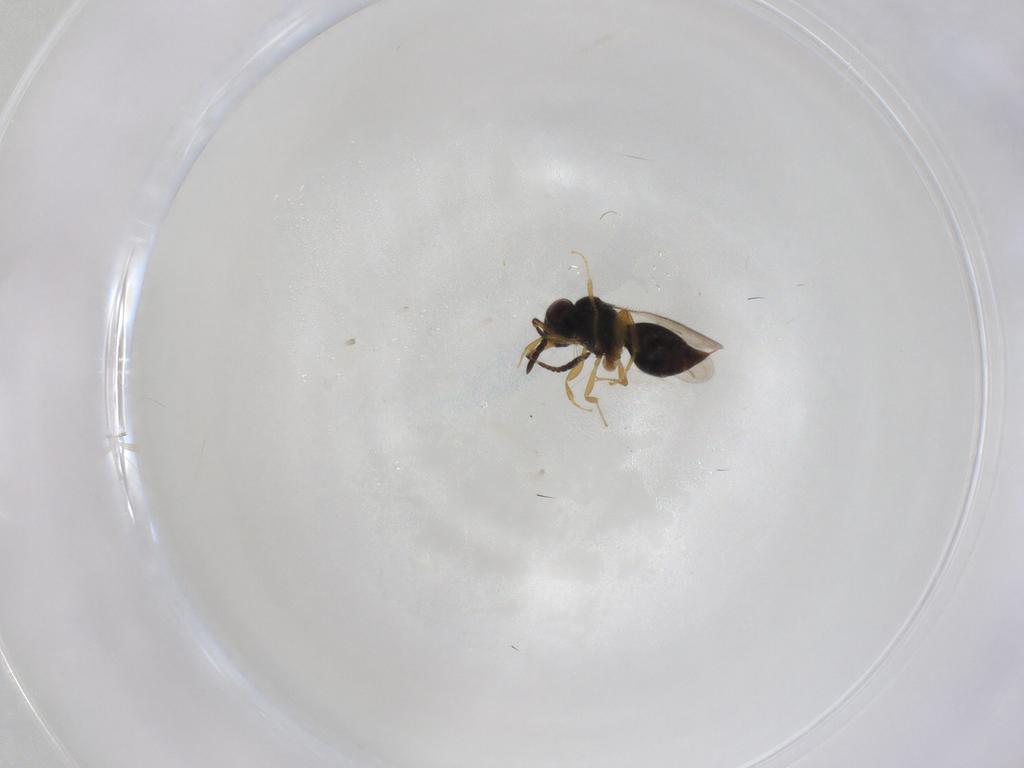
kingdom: Animalia
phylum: Arthropoda
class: Insecta
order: Hymenoptera
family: Ceraphronidae
